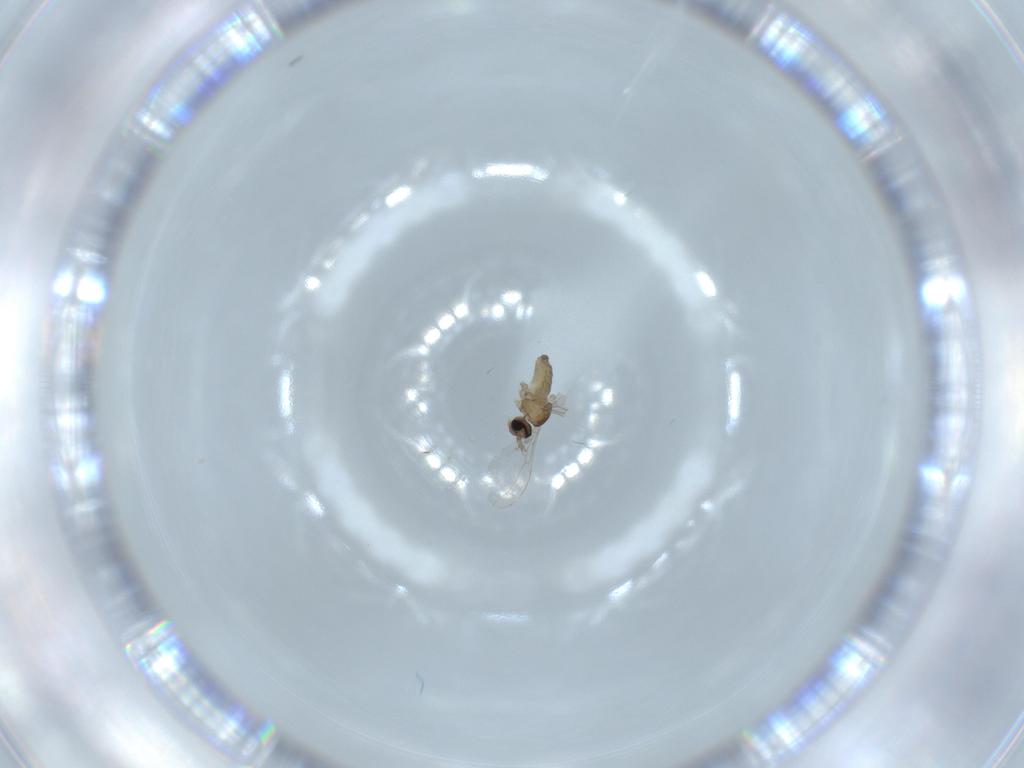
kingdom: Animalia
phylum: Arthropoda
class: Insecta
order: Diptera
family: Cecidomyiidae
